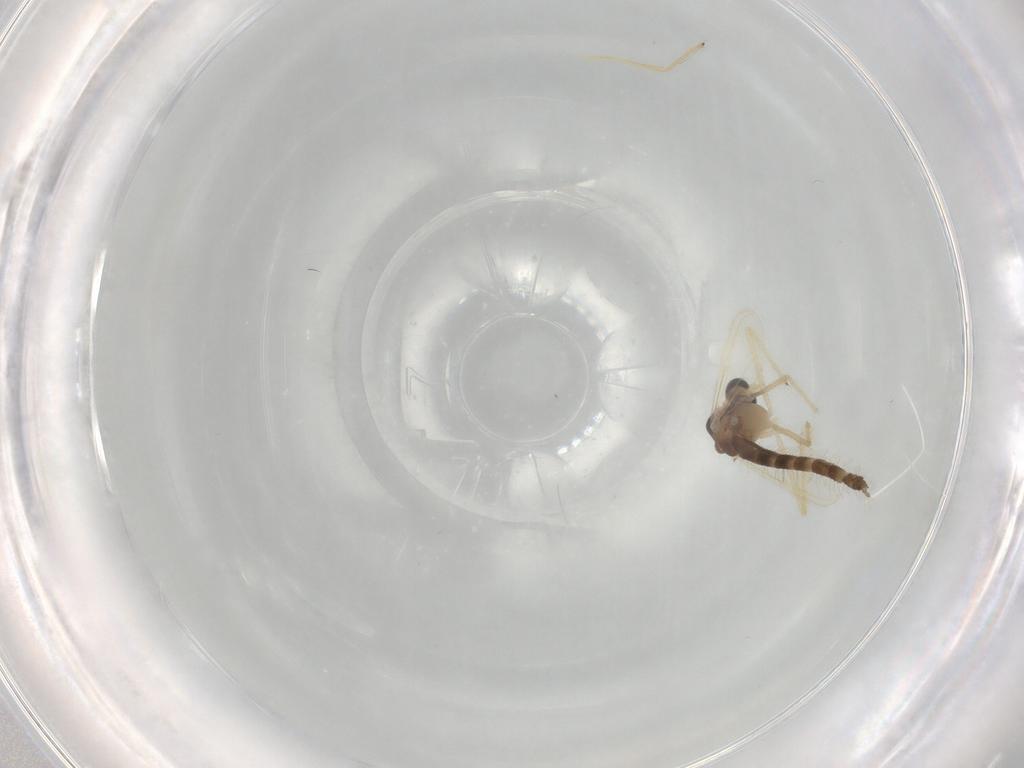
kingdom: Animalia
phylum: Arthropoda
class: Insecta
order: Diptera
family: Chironomidae
